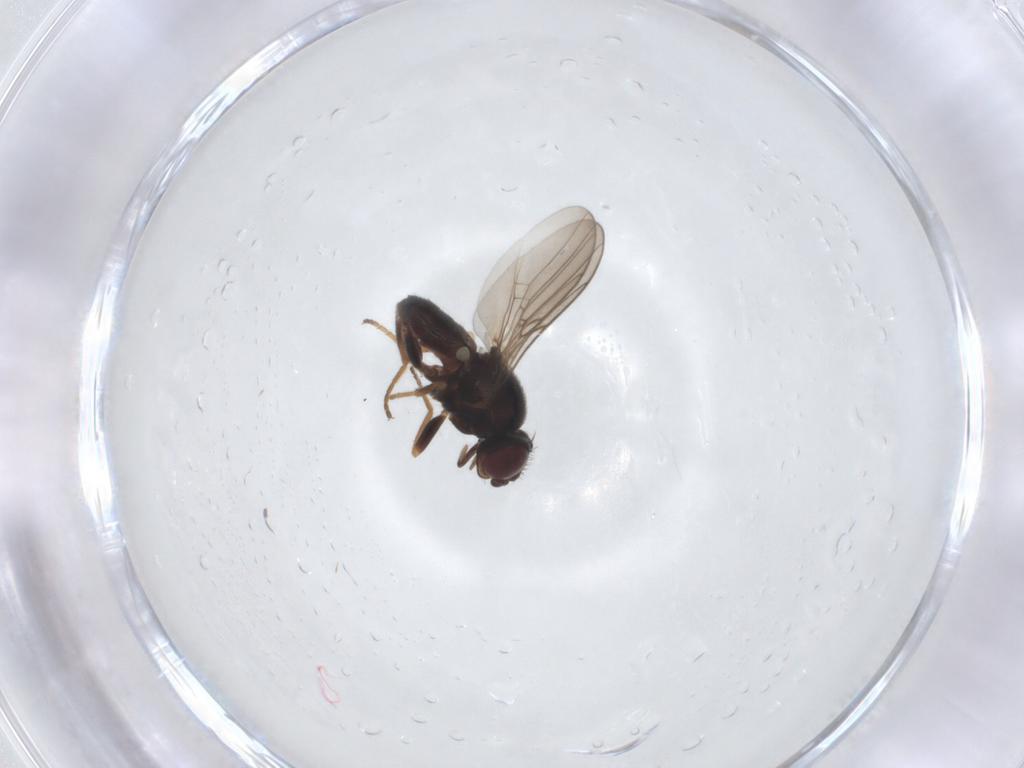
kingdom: Animalia
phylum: Arthropoda
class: Insecta
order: Diptera
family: Chloropidae
